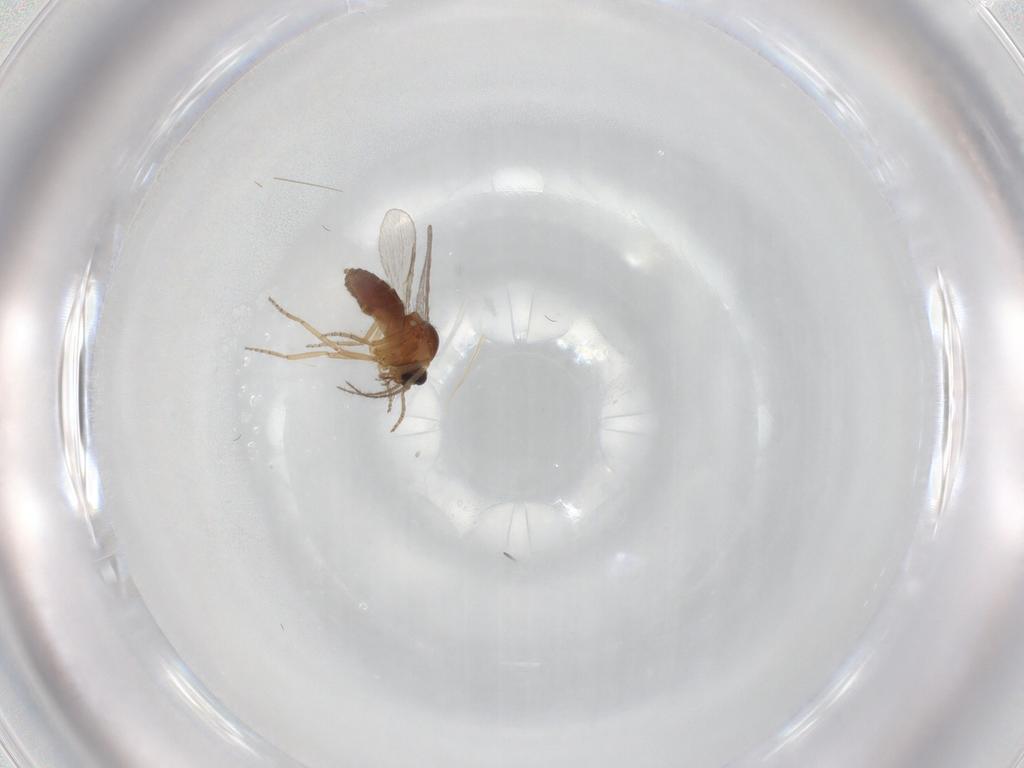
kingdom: Animalia
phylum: Arthropoda
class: Insecta
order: Diptera
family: Ceratopogonidae
